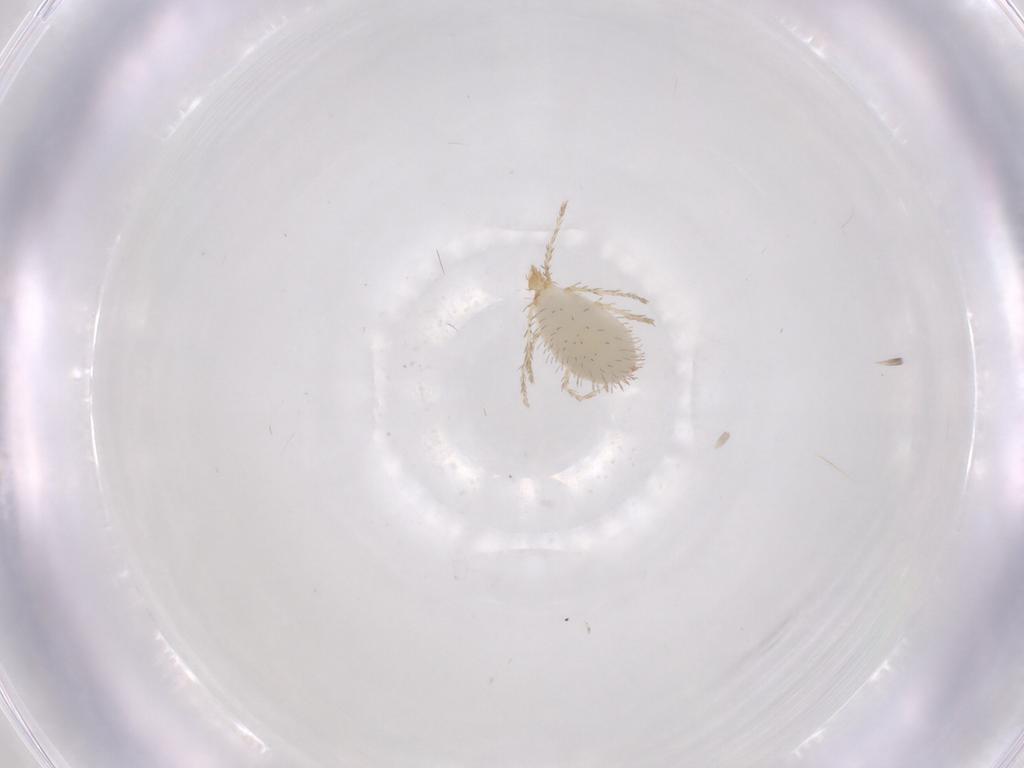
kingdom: Animalia
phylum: Arthropoda
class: Arachnida
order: Trombidiformes
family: Erythraeidae
